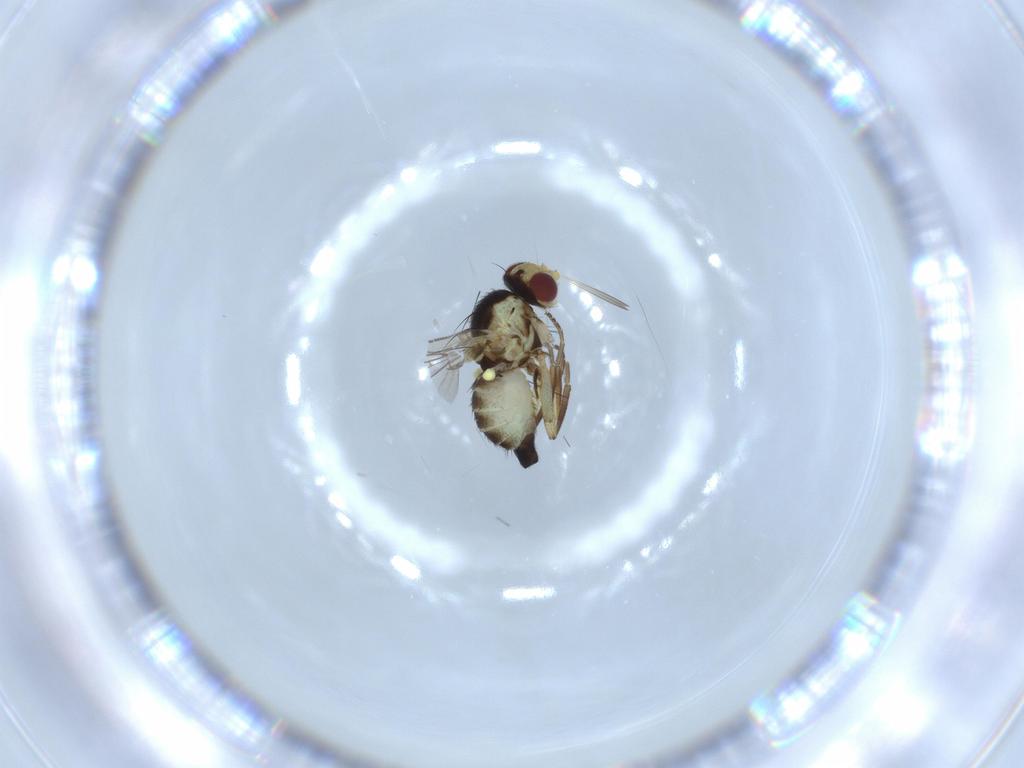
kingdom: Animalia
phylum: Arthropoda
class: Insecta
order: Diptera
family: Agromyzidae
